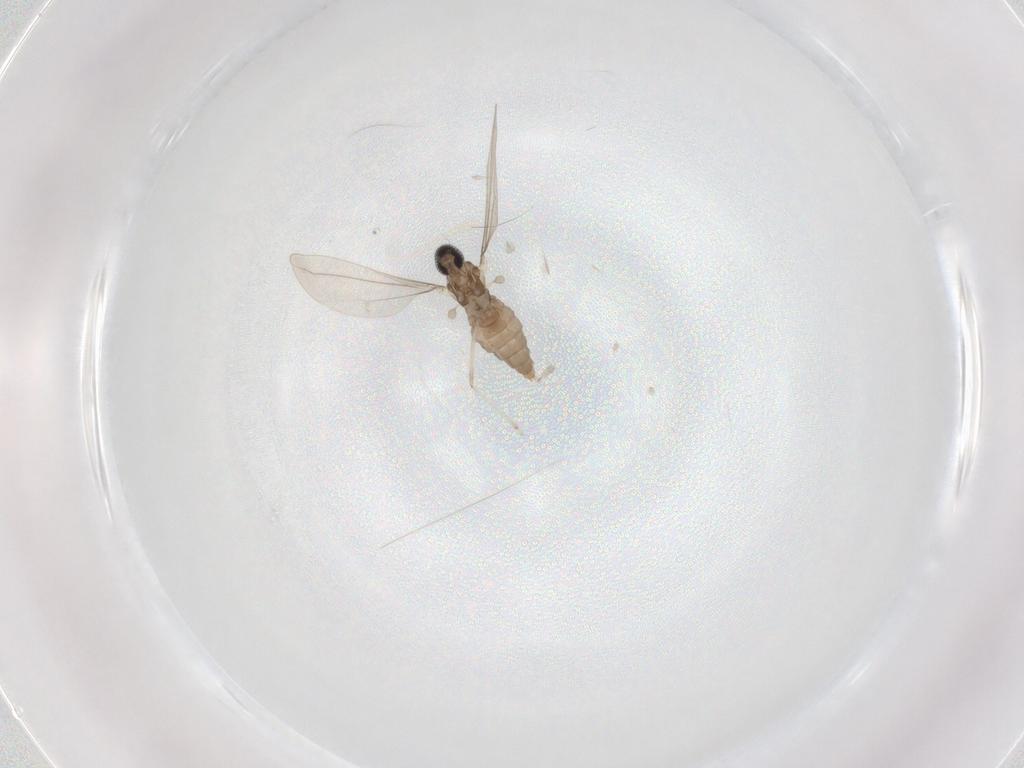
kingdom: Animalia
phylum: Arthropoda
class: Insecta
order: Diptera
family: Cecidomyiidae
